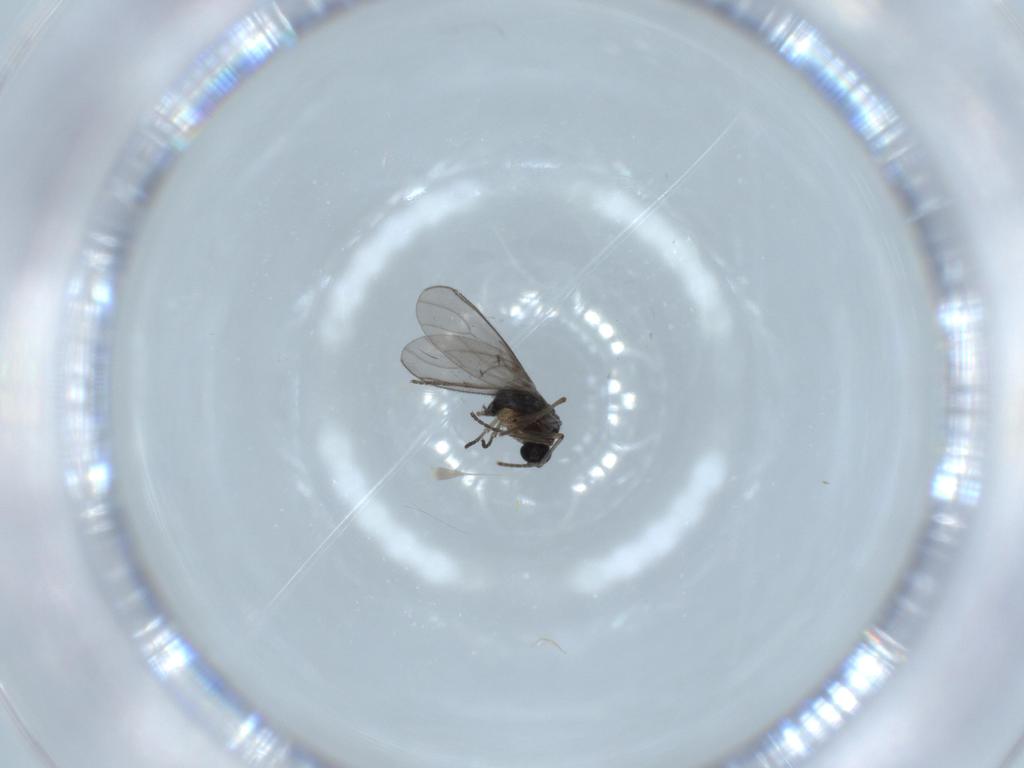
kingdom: Animalia
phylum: Arthropoda
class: Insecta
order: Diptera
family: Sciaridae
